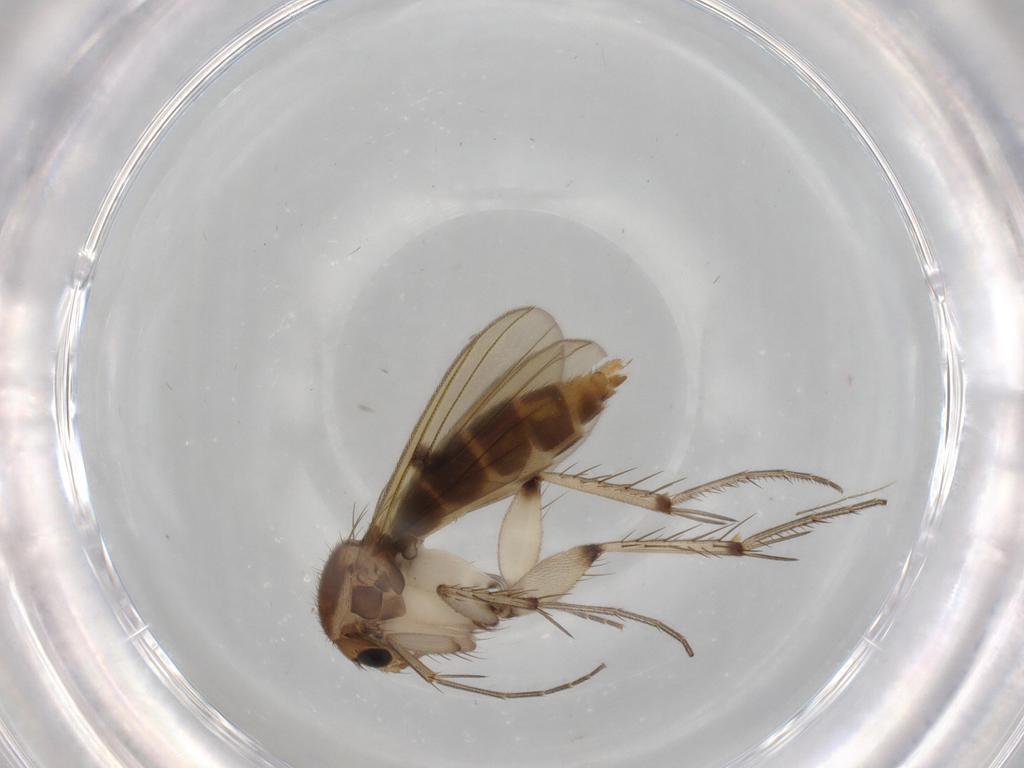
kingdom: Animalia
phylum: Arthropoda
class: Insecta
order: Diptera
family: Mycetophilidae
